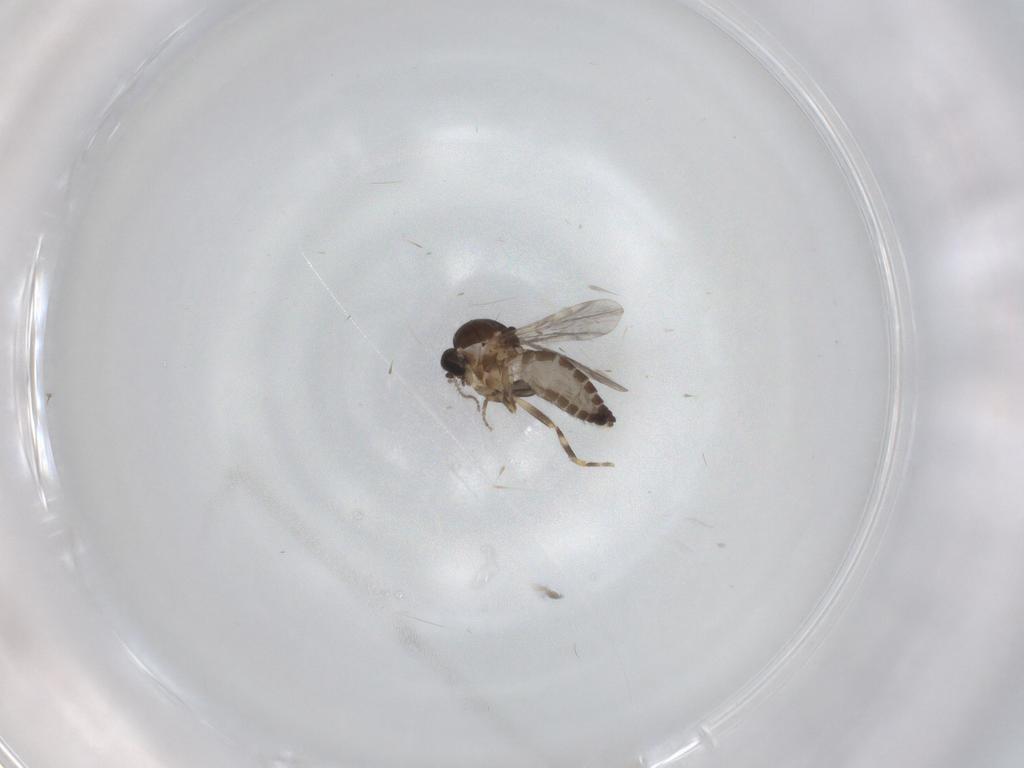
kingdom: Animalia
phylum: Arthropoda
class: Insecta
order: Diptera
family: Ceratopogonidae
